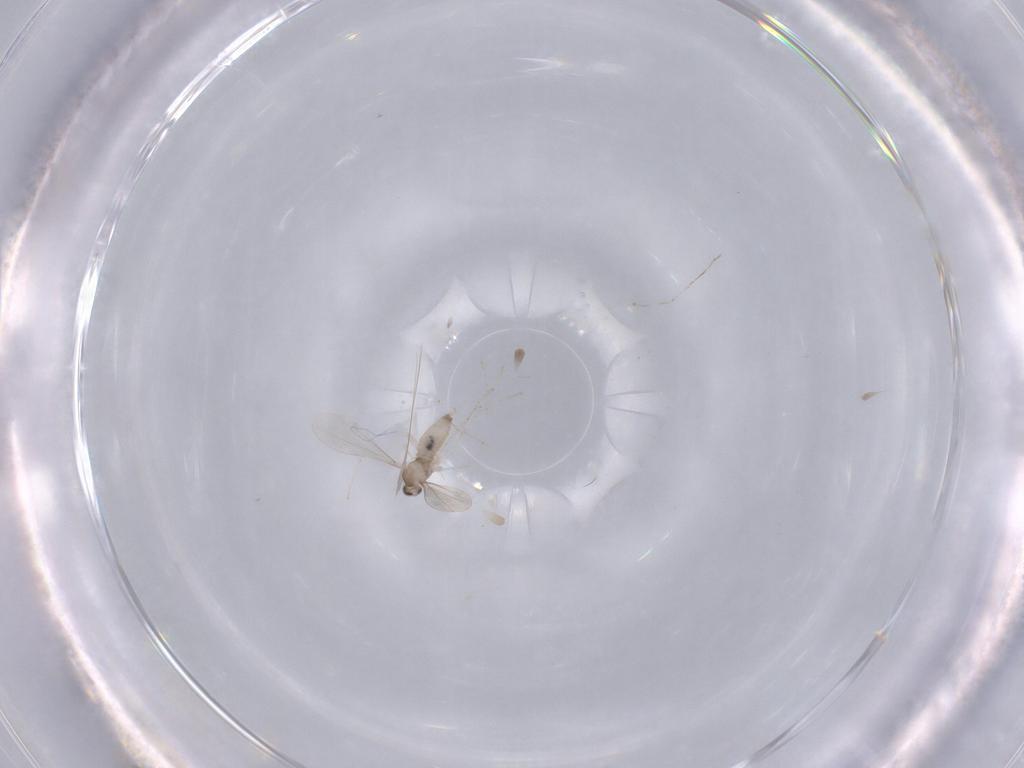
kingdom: Animalia
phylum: Arthropoda
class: Insecta
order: Diptera
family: Cecidomyiidae
